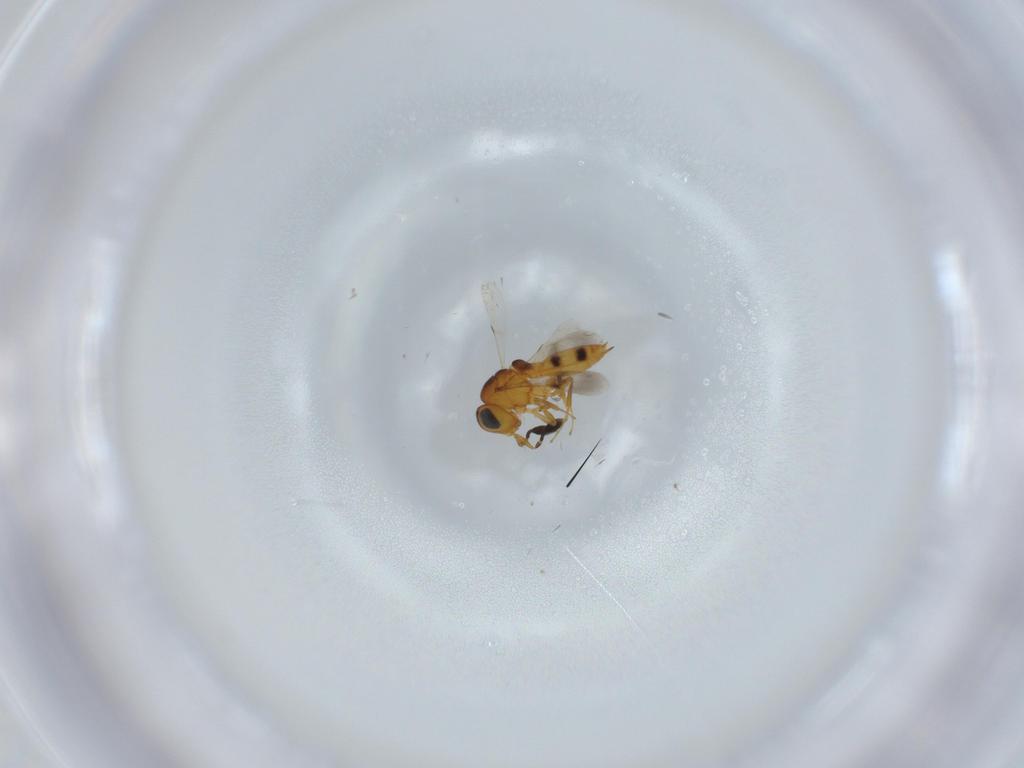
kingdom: Animalia
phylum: Arthropoda
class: Insecta
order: Hymenoptera
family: Scelionidae
